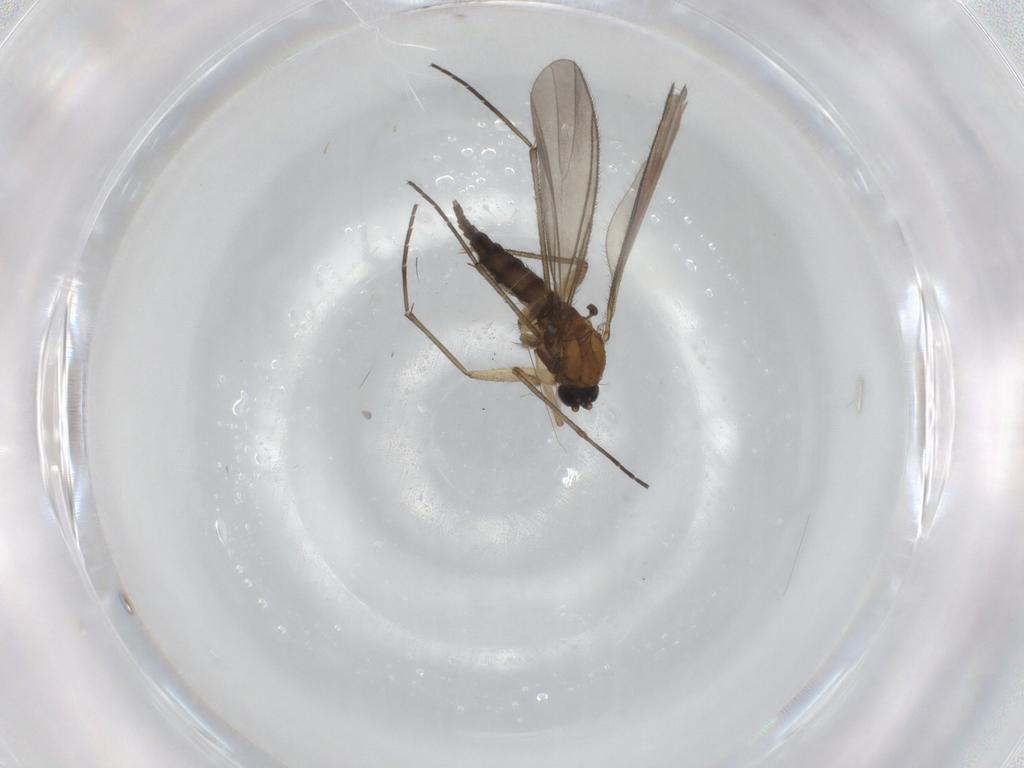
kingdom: Animalia
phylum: Arthropoda
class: Insecta
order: Diptera
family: Sciaridae
